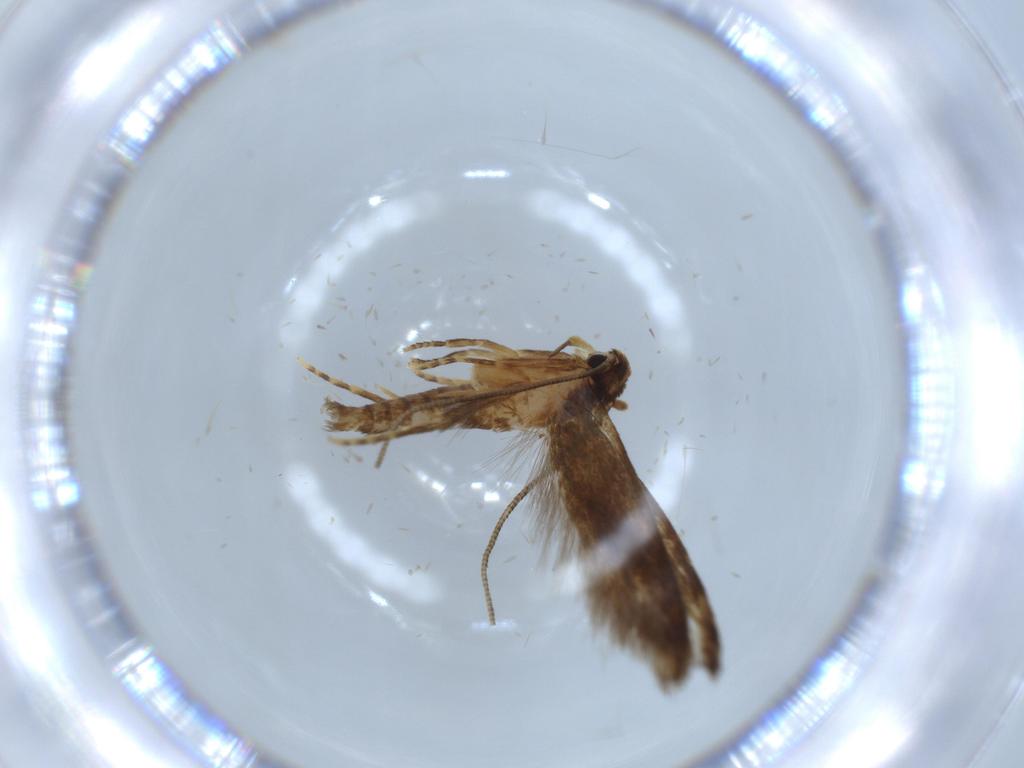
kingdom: Animalia
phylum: Arthropoda
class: Insecta
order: Lepidoptera
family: Tineidae
